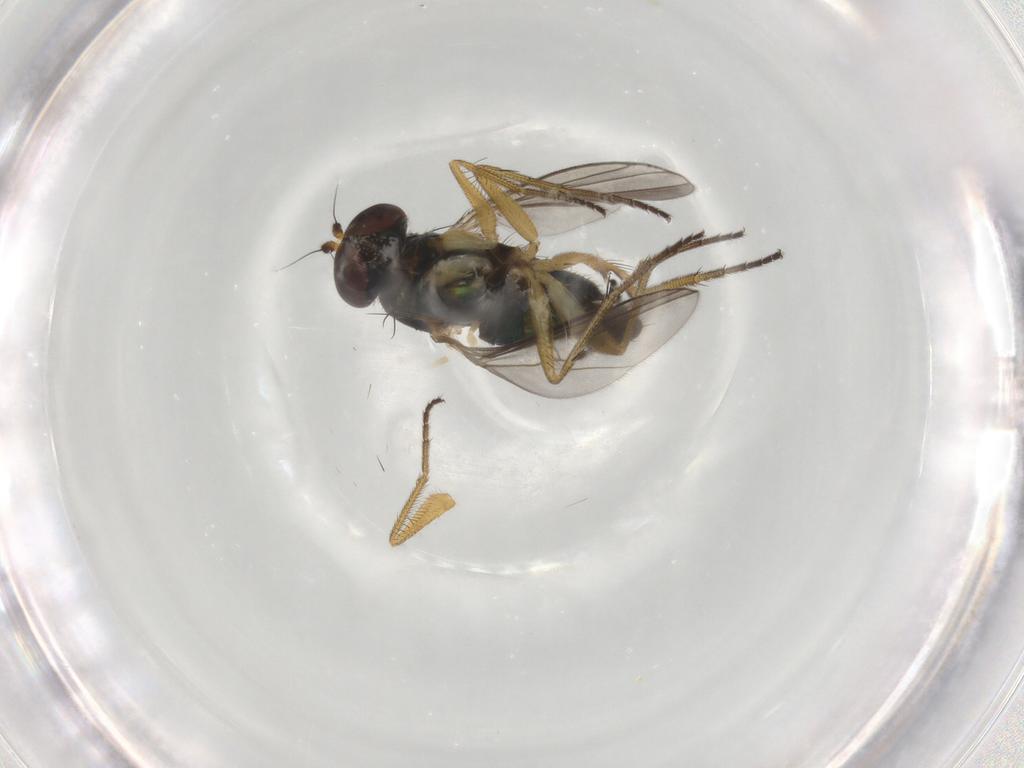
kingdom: Animalia
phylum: Arthropoda
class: Insecta
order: Diptera
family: Dolichopodidae
